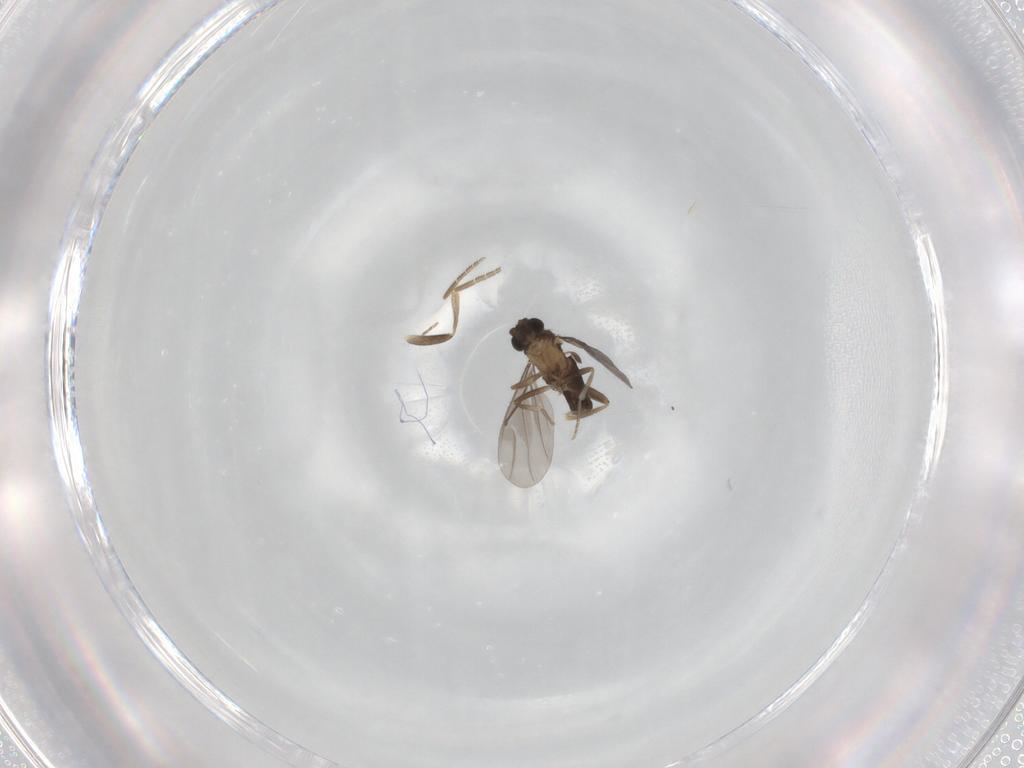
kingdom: Animalia
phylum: Arthropoda
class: Insecta
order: Diptera
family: Phoridae
